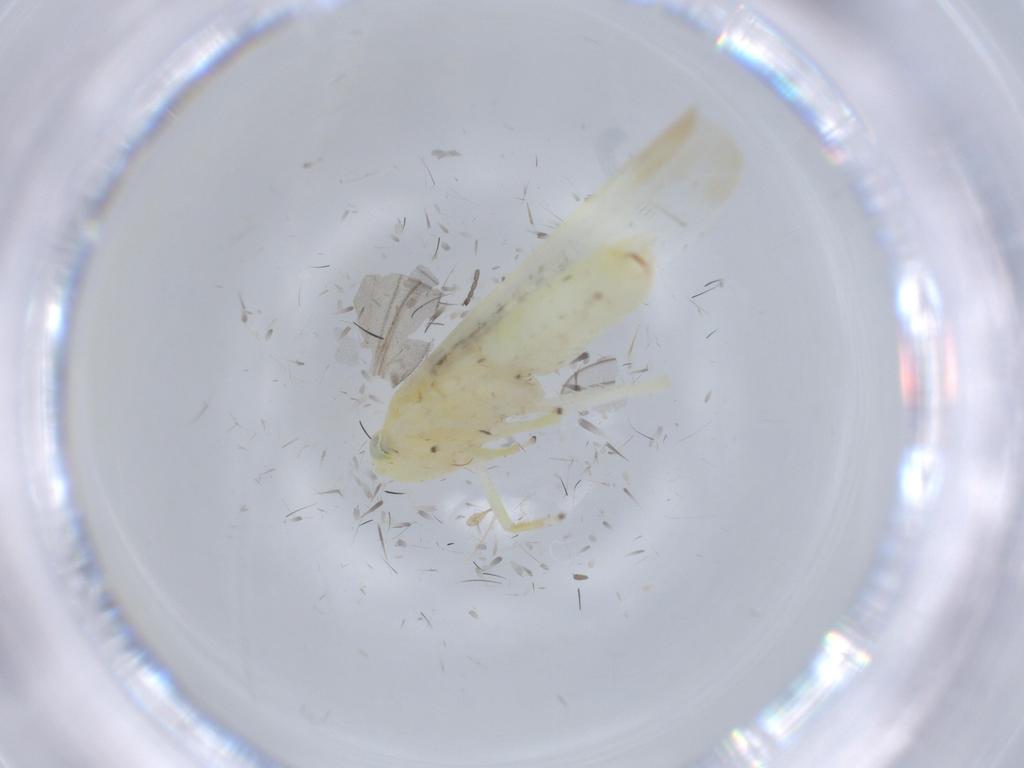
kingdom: Animalia
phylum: Arthropoda
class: Insecta
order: Hemiptera
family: Cicadellidae
